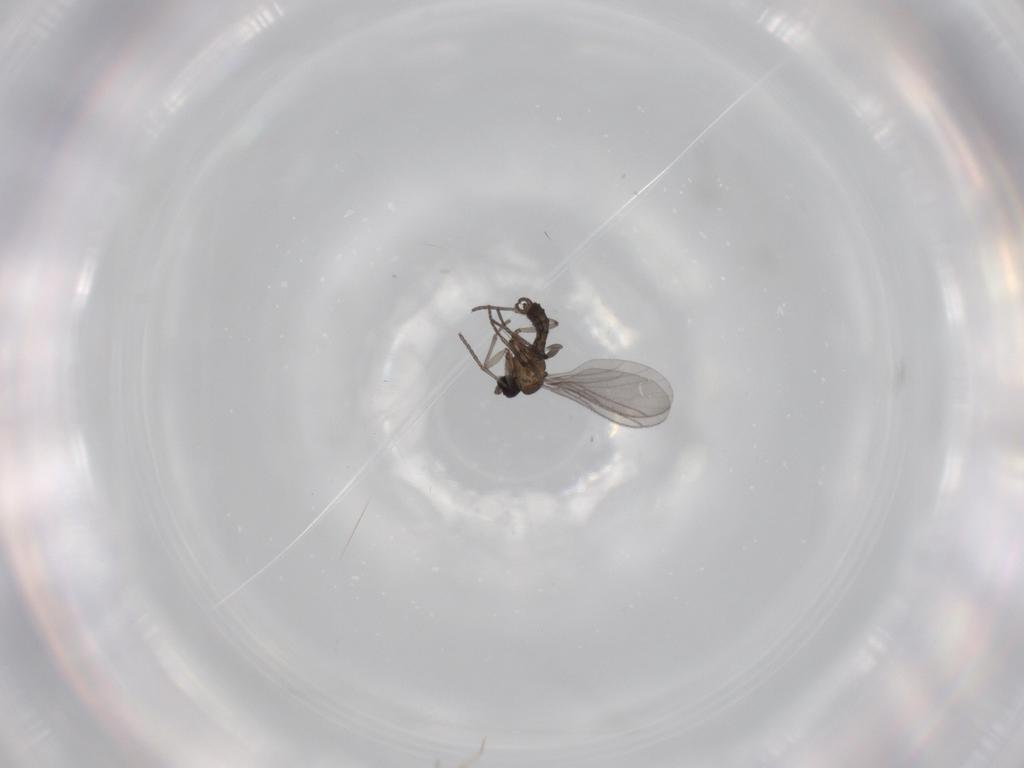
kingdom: Animalia
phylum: Arthropoda
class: Insecta
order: Diptera
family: Sciaridae
